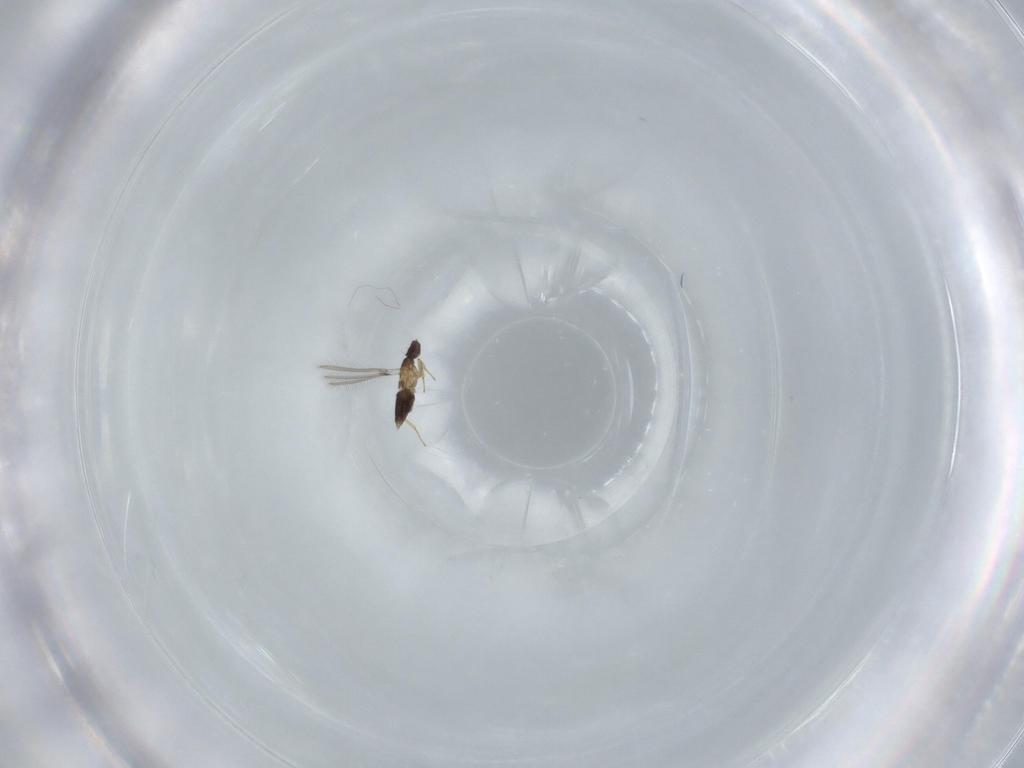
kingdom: Animalia
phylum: Arthropoda
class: Insecta
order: Hymenoptera
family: Mymaridae
